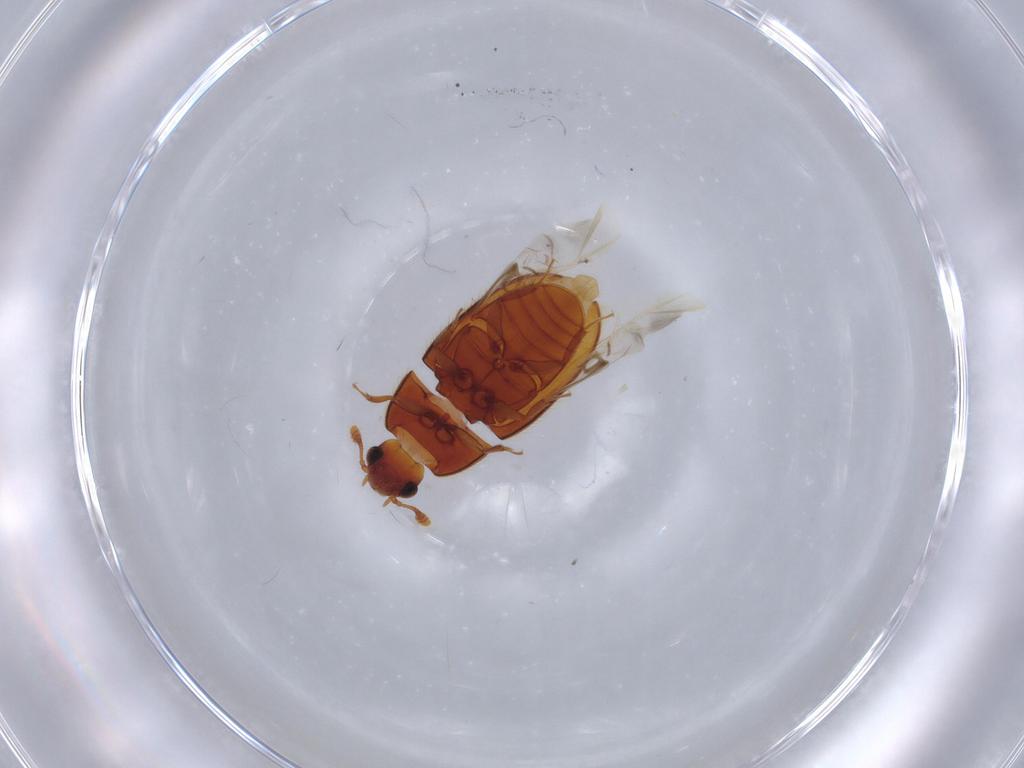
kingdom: Animalia
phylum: Arthropoda
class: Insecta
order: Coleoptera
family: Biphyllidae
